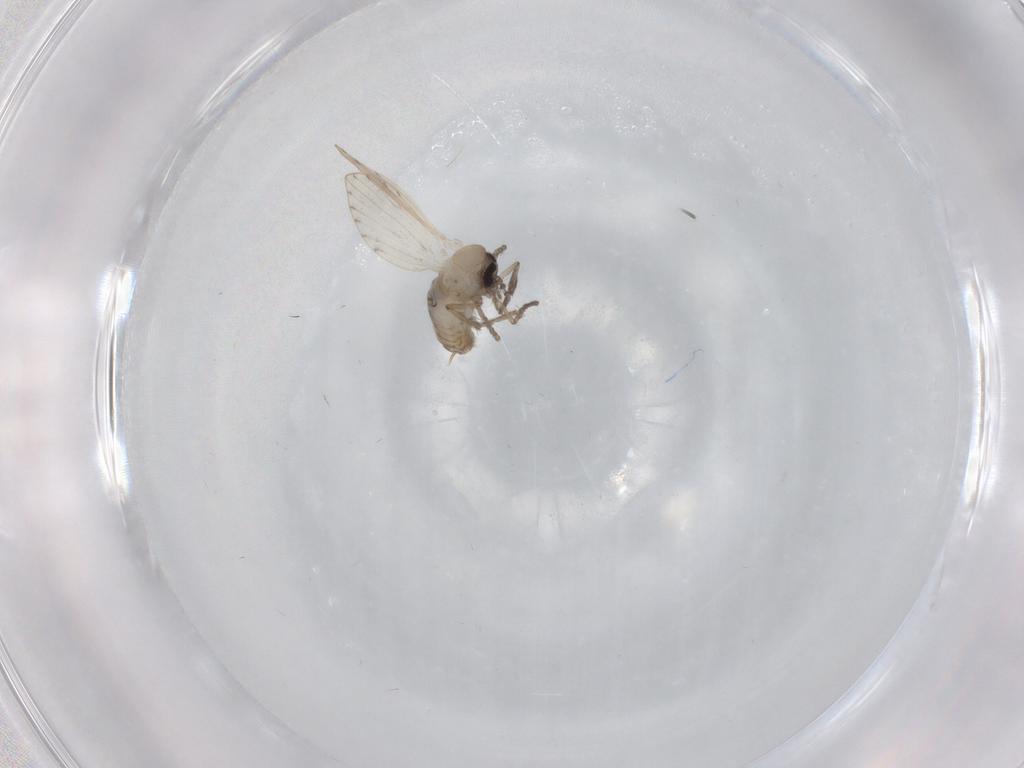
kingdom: Animalia
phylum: Arthropoda
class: Insecta
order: Diptera
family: Psychodidae
